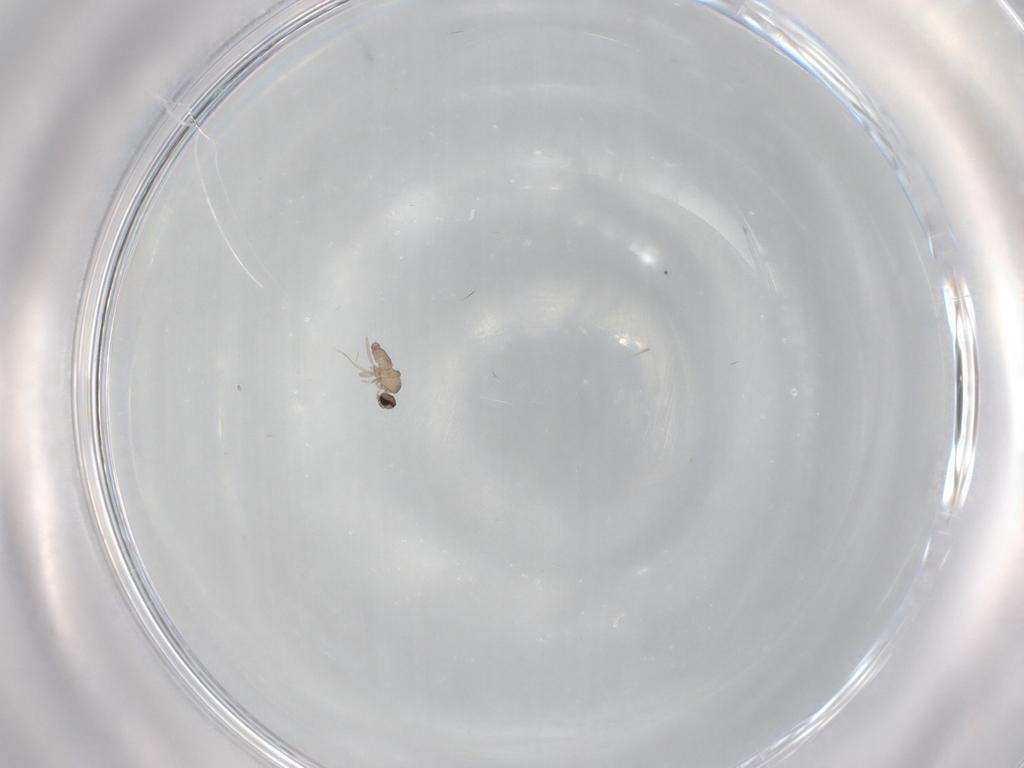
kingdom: Animalia
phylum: Arthropoda
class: Insecta
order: Diptera
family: Cecidomyiidae
